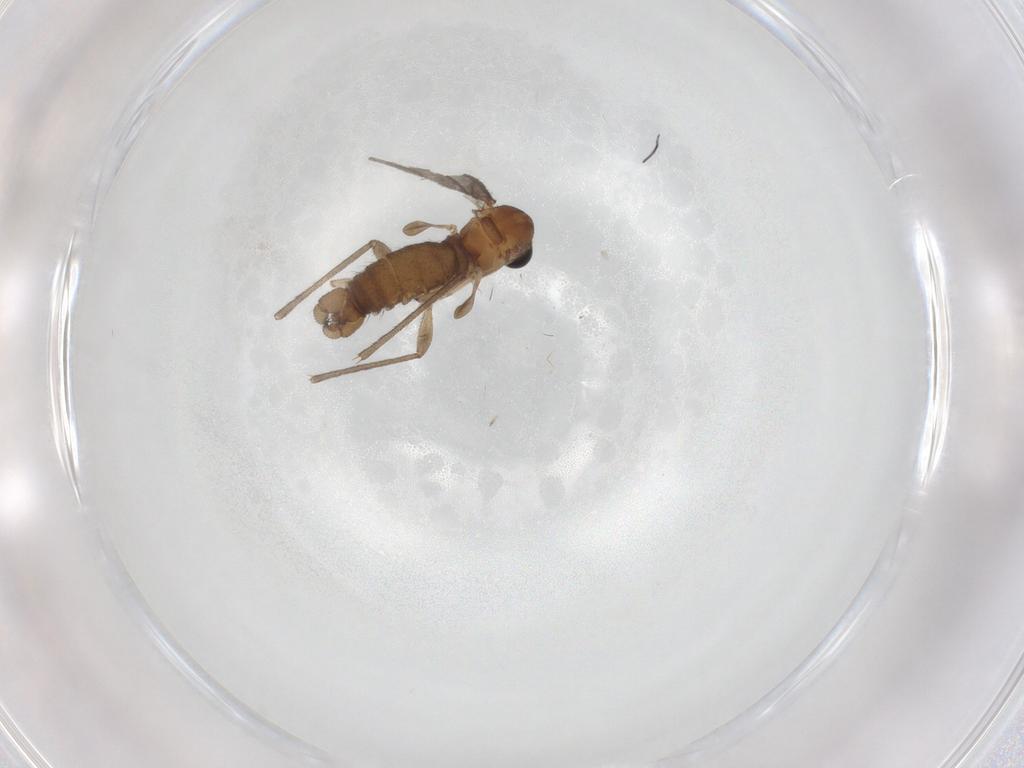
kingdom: Animalia
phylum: Arthropoda
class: Insecta
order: Diptera
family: Sciaridae
